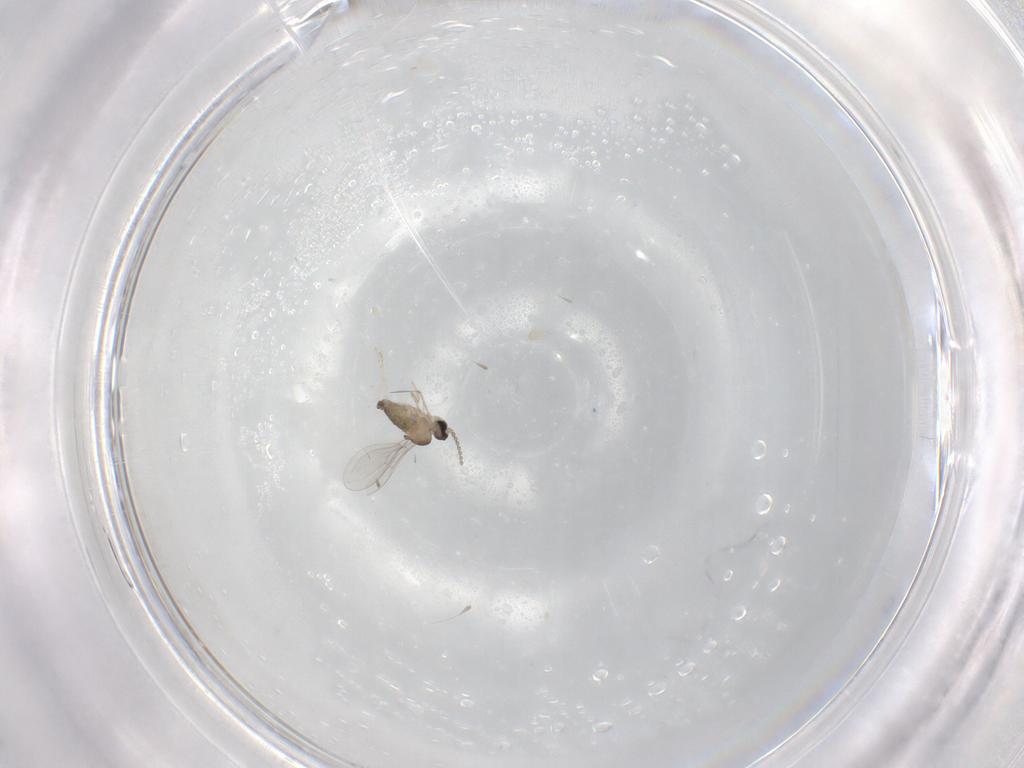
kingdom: Animalia
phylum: Arthropoda
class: Insecta
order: Diptera
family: Cecidomyiidae
